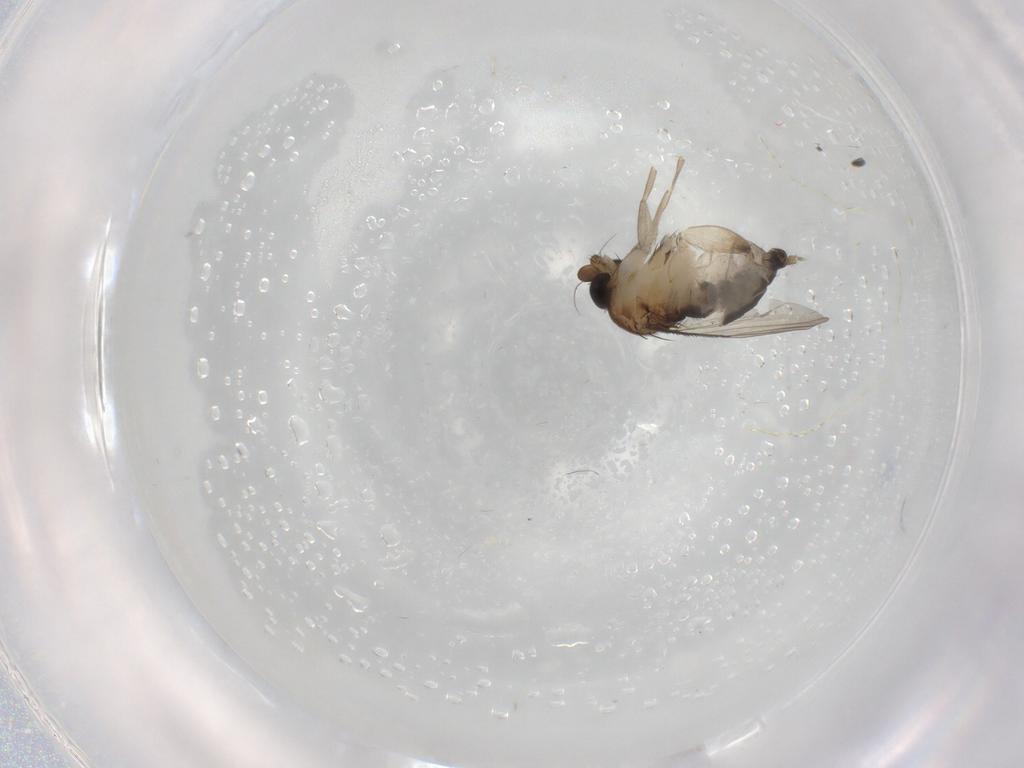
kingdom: Animalia
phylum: Arthropoda
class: Insecta
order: Diptera
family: Phoridae
